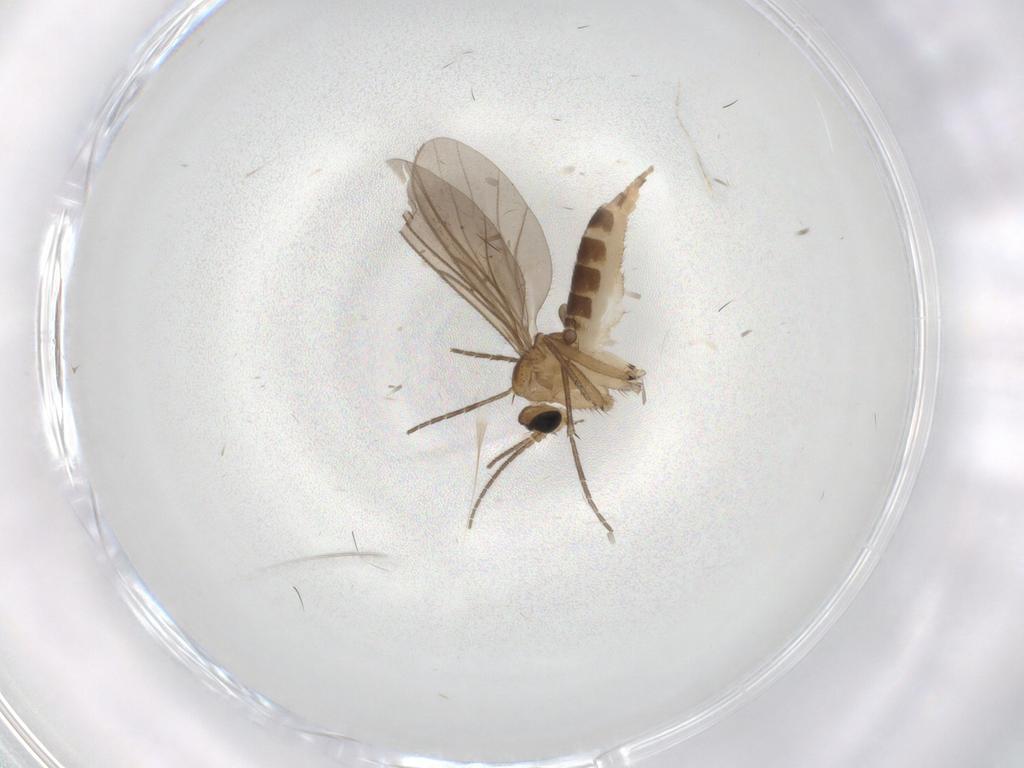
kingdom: Animalia
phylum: Arthropoda
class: Insecta
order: Diptera
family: Sciaridae
